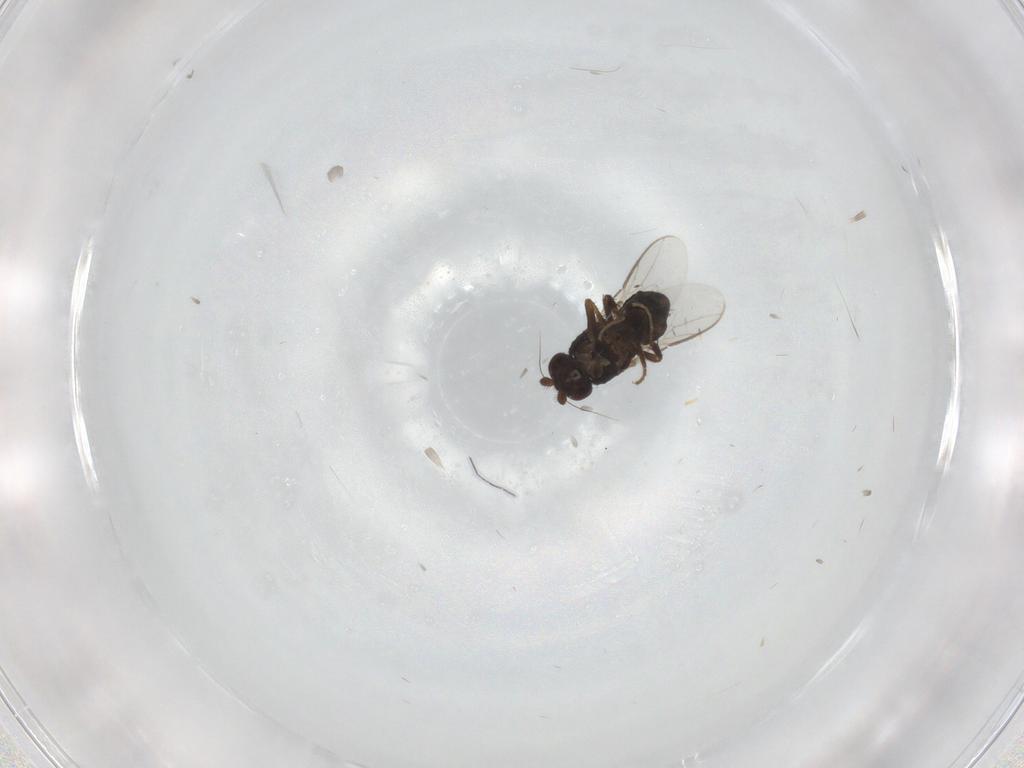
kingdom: Animalia
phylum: Arthropoda
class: Insecta
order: Diptera
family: Sphaeroceridae
